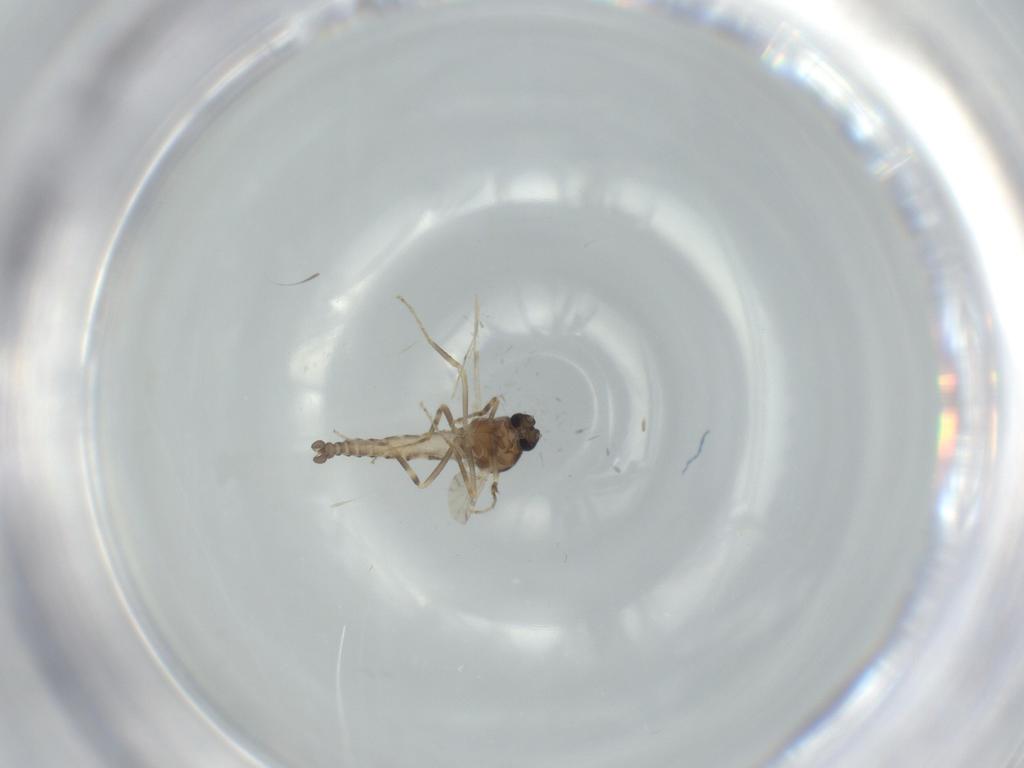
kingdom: Animalia
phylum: Arthropoda
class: Insecta
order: Diptera
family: Ceratopogonidae
